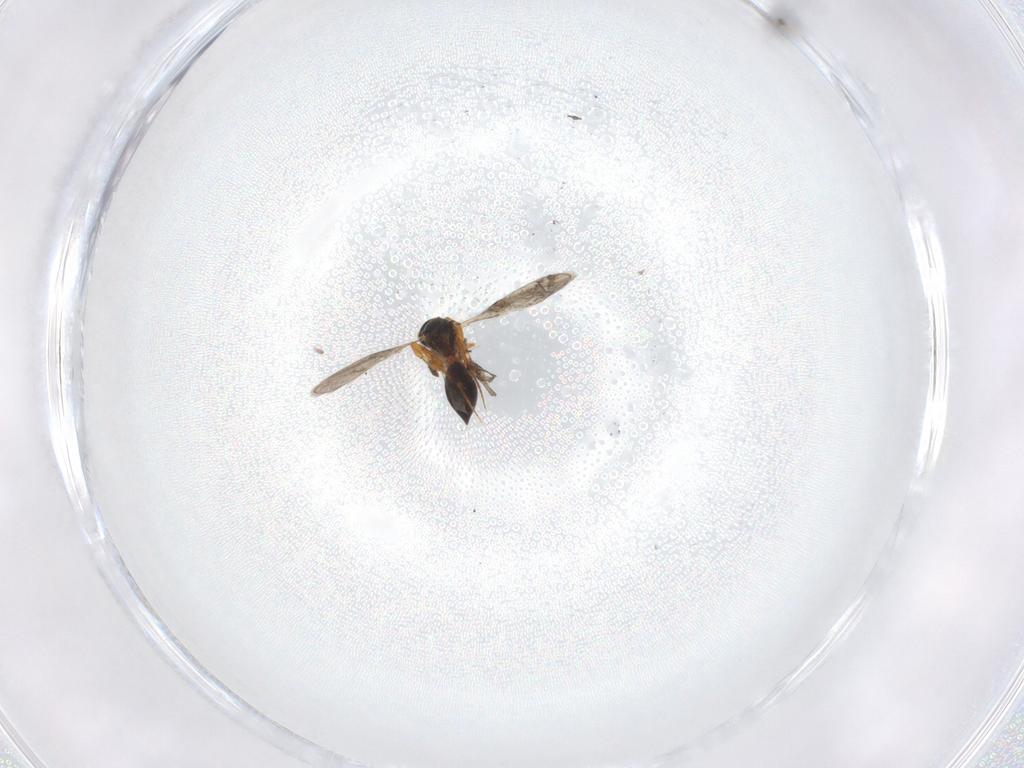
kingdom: Animalia
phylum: Arthropoda
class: Insecta
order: Hymenoptera
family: Platygastridae
